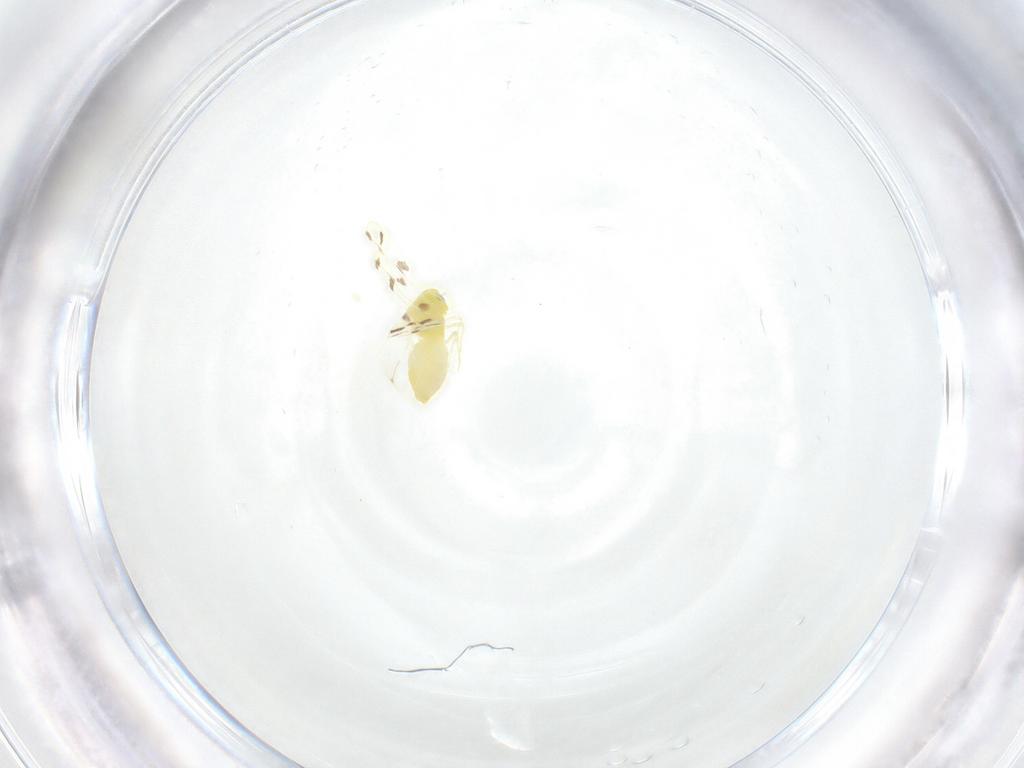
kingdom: Animalia
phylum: Arthropoda
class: Insecta
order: Hemiptera
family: Aleyrodidae
